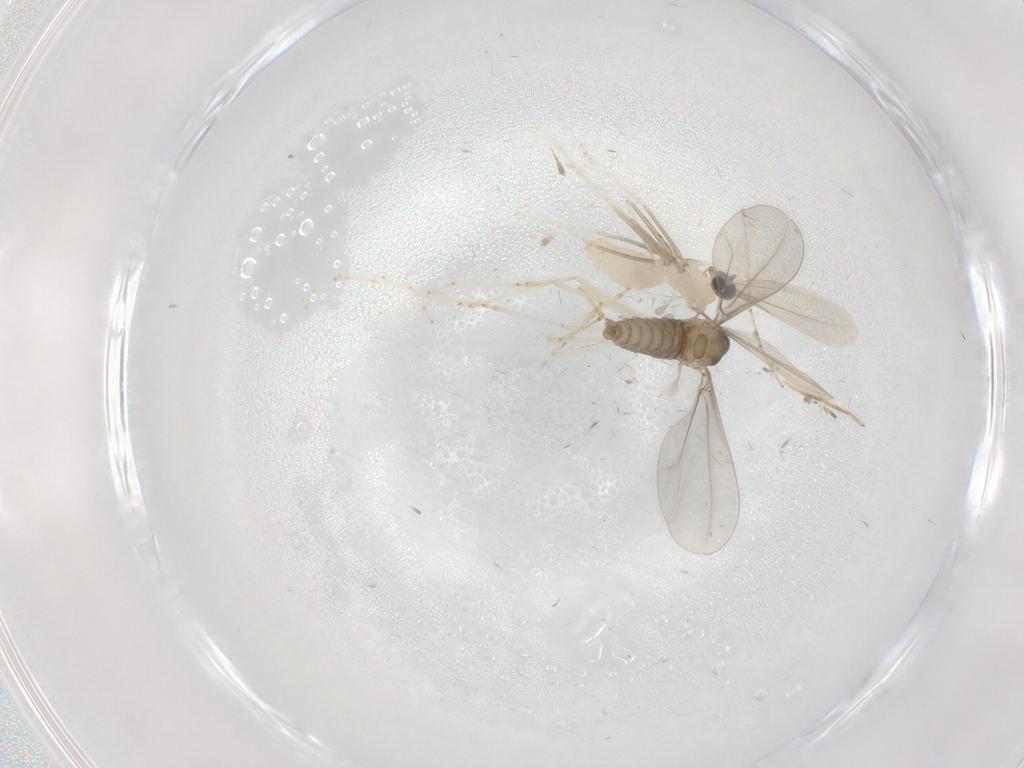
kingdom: Animalia
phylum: Arthropoda
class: Insecta
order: Diptera
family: Cecidomyiidae
